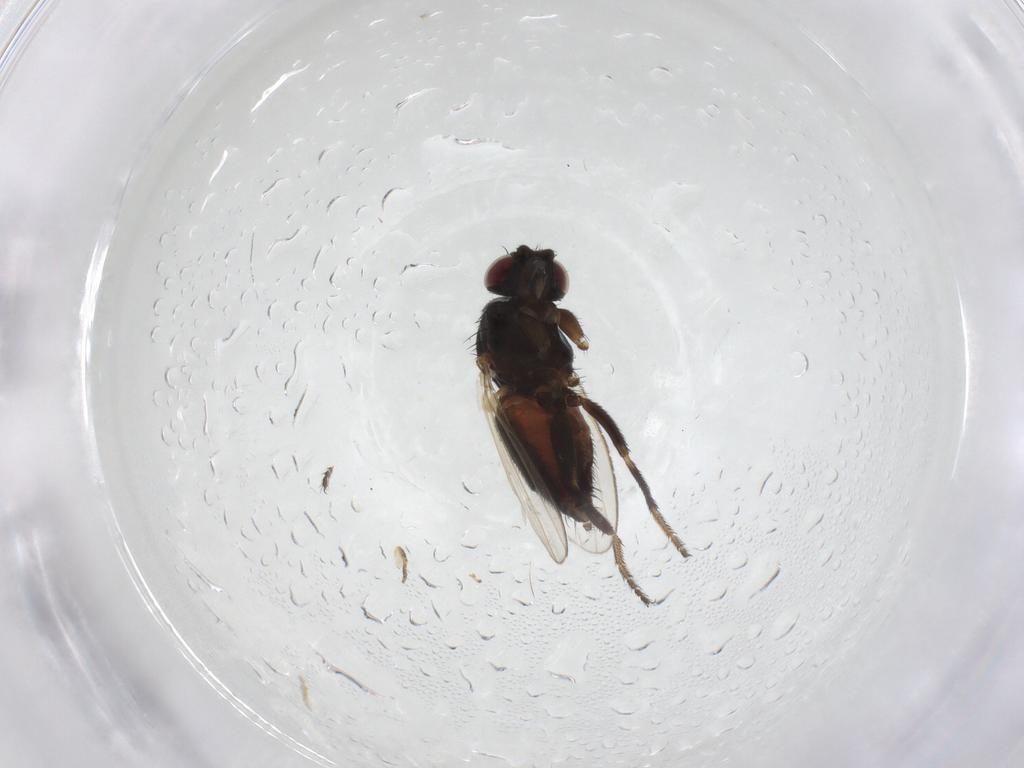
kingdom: Animalia
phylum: Arthropoda
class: Insecta
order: Diptera
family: Milichiidae
